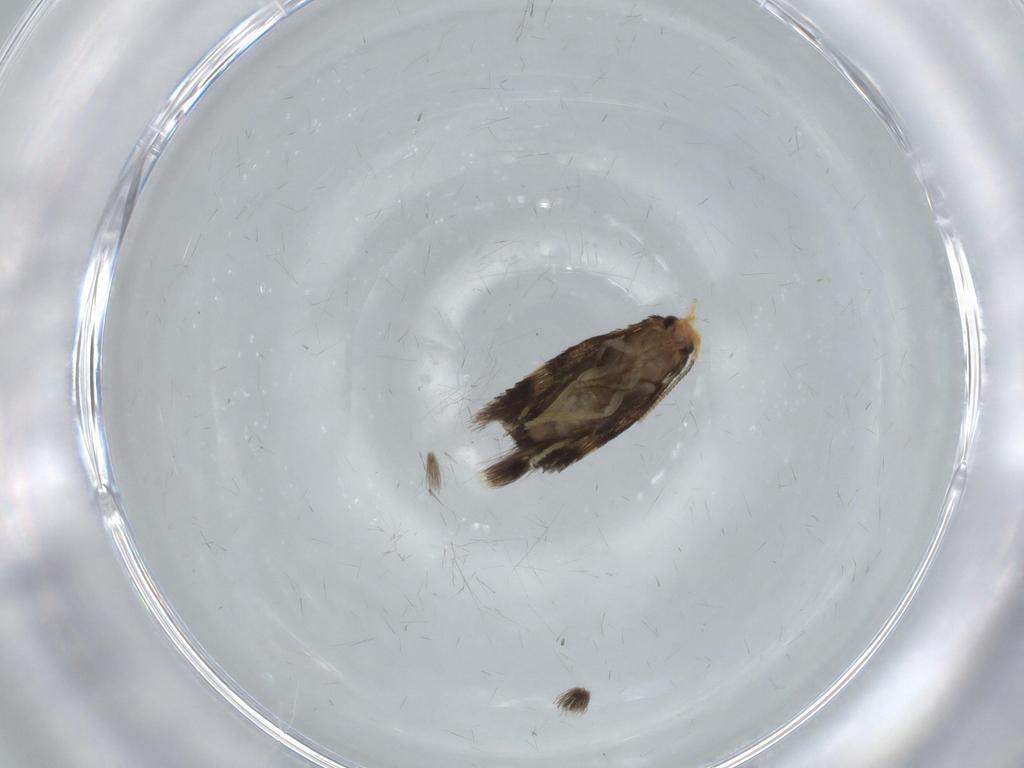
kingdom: Animalia
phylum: Arthropoda
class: Insecta
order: Lepidoptera
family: Nepticulidae
